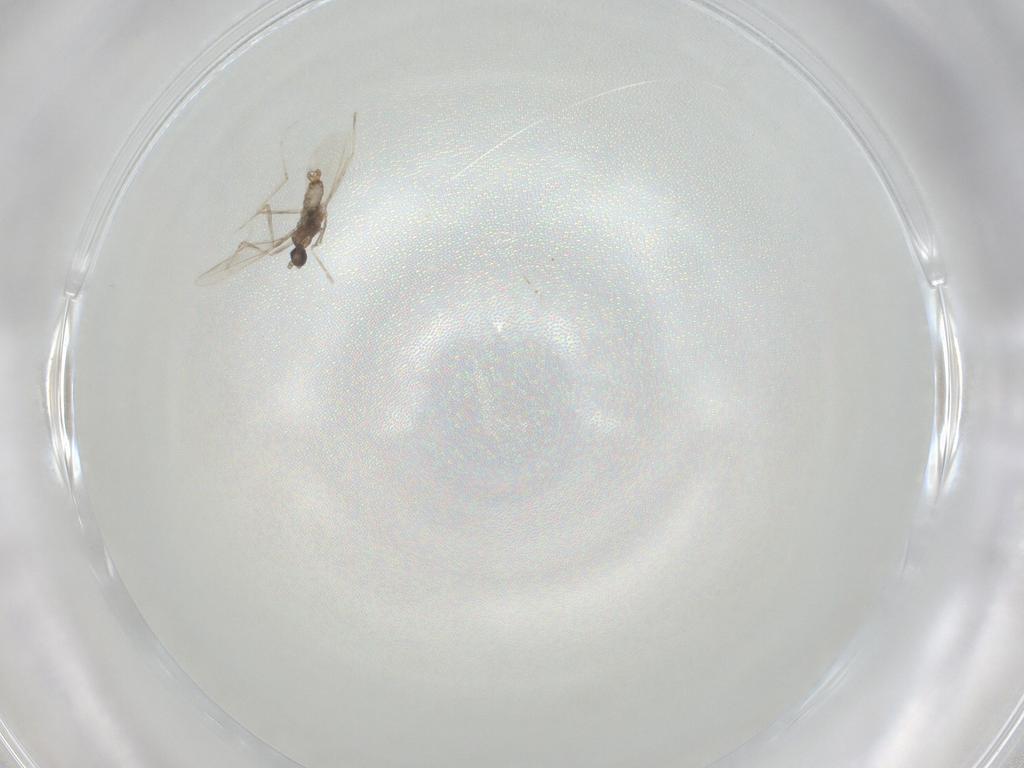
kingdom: Animalia
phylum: Arthropoda
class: Insecta
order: Diptera
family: Cecidomyiidae
